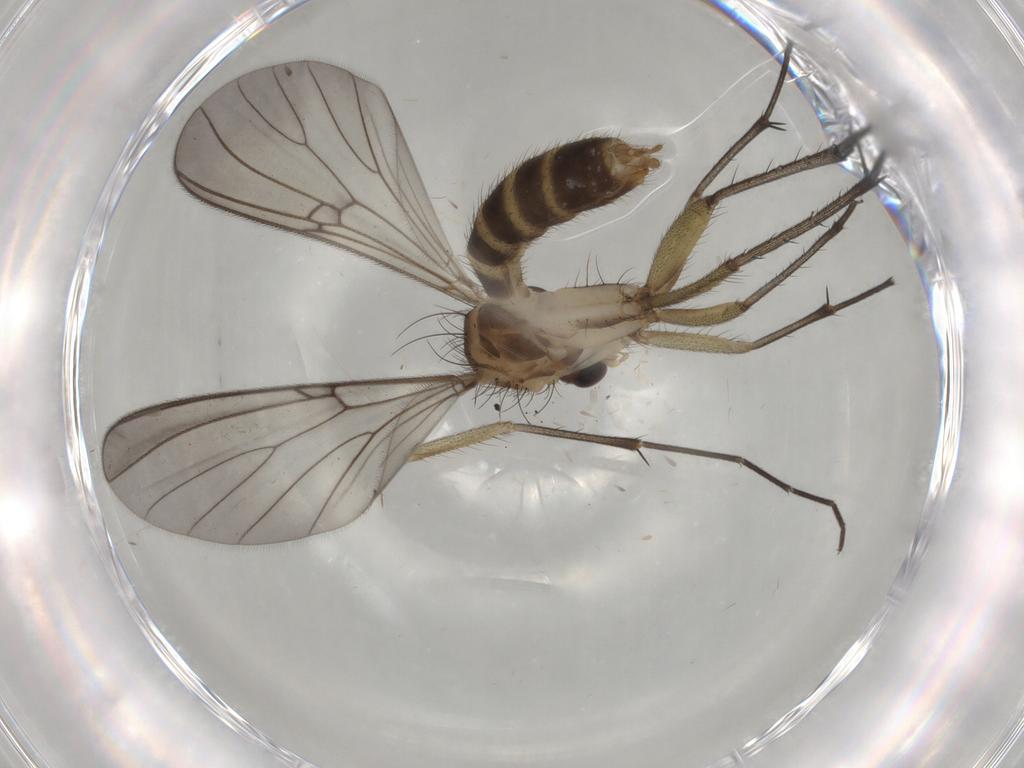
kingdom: Animalia
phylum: Arthropoda
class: Insecta
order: Diptera
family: Mycetophilidae
